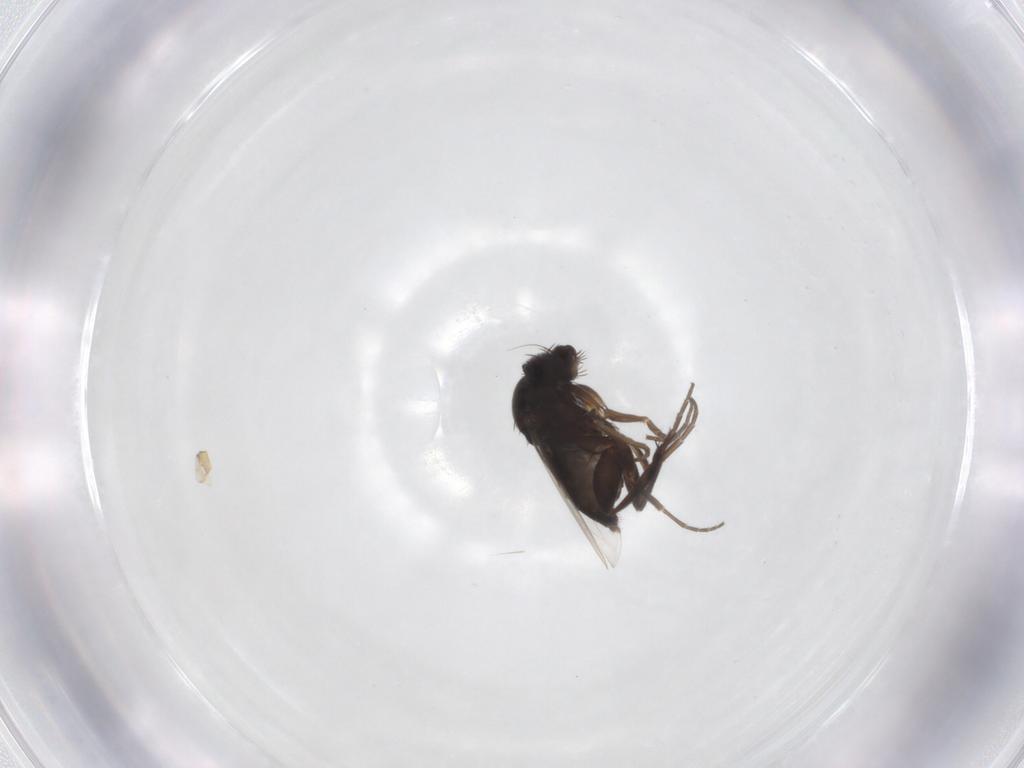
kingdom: Animalia
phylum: Arthropoda
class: Insecta
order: Diptera
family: Phoridae
